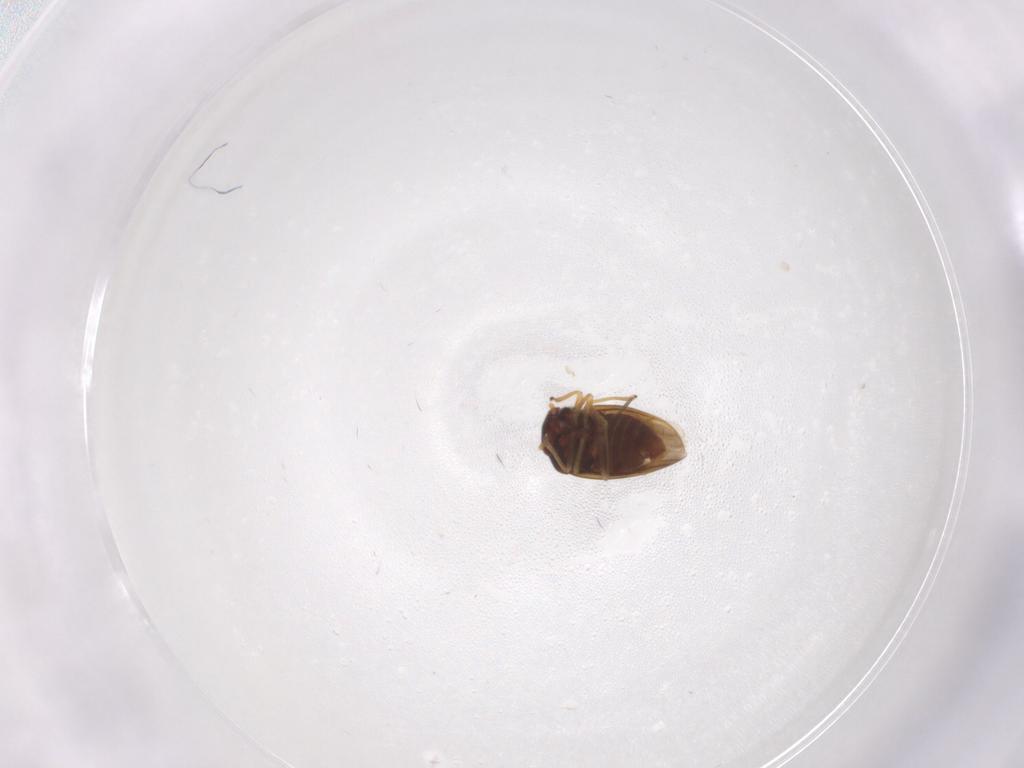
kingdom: Animalia
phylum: Arthropoda
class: Insecta
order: Hemiptera
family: Schizopteridae
